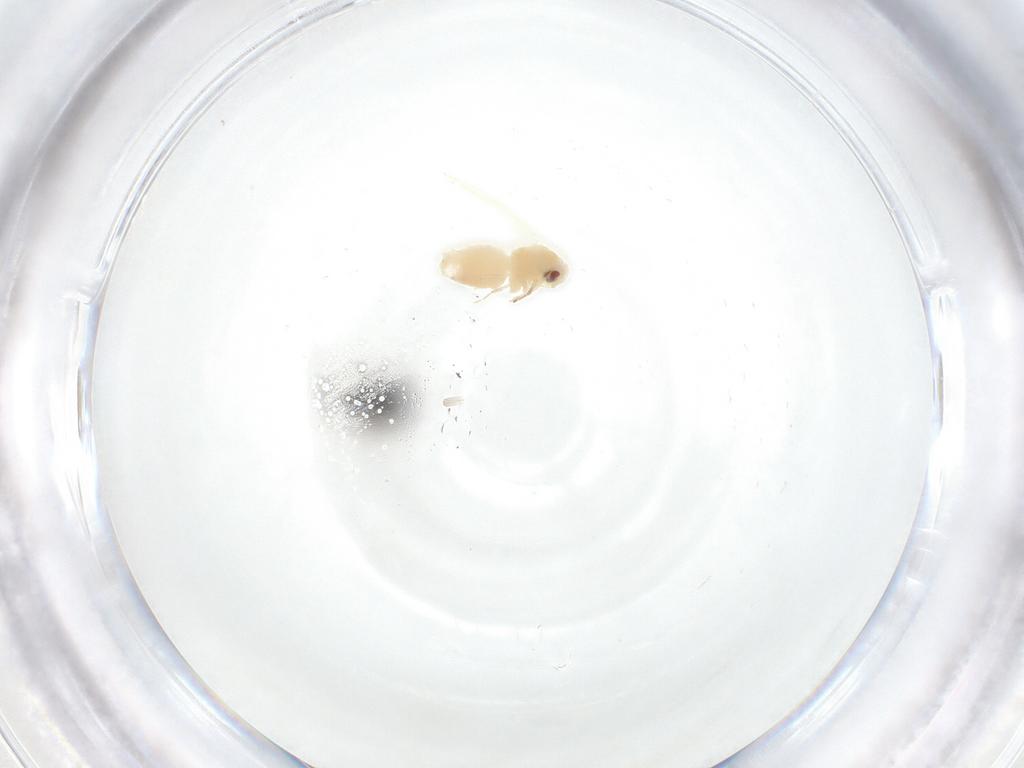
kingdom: Animalia
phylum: Arthropoda
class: Insecta
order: Hemiptera
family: Aleyrodidae
